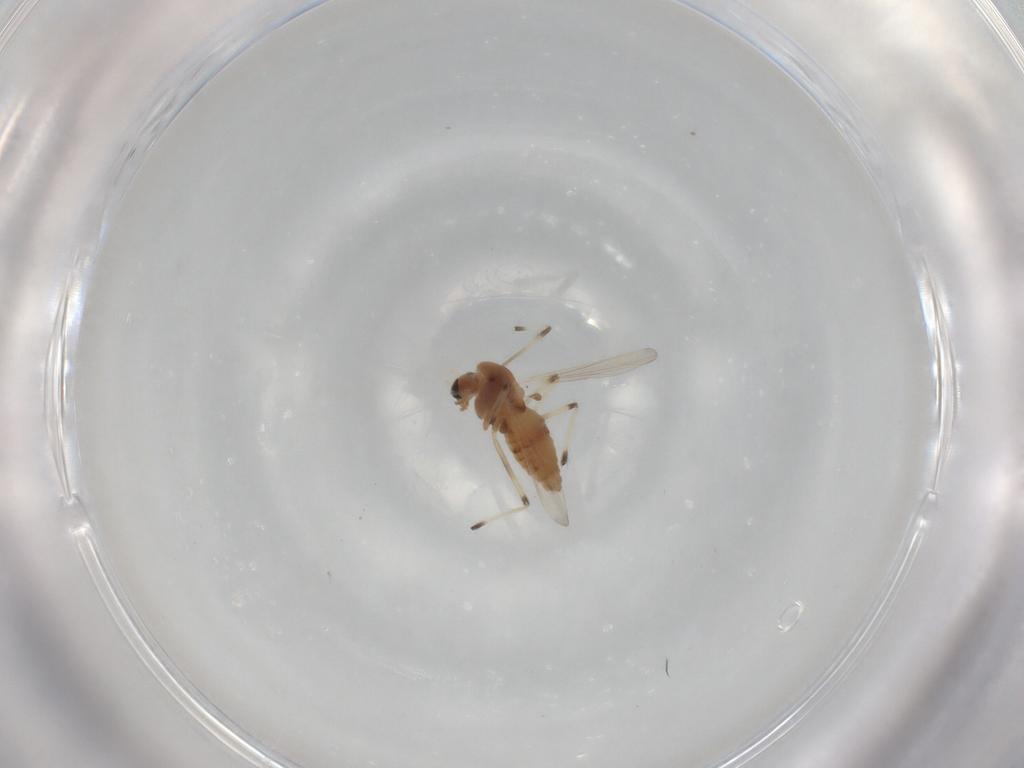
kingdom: Animalia
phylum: Arthropoda
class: Insecta
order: Diptera
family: Chironomidae
